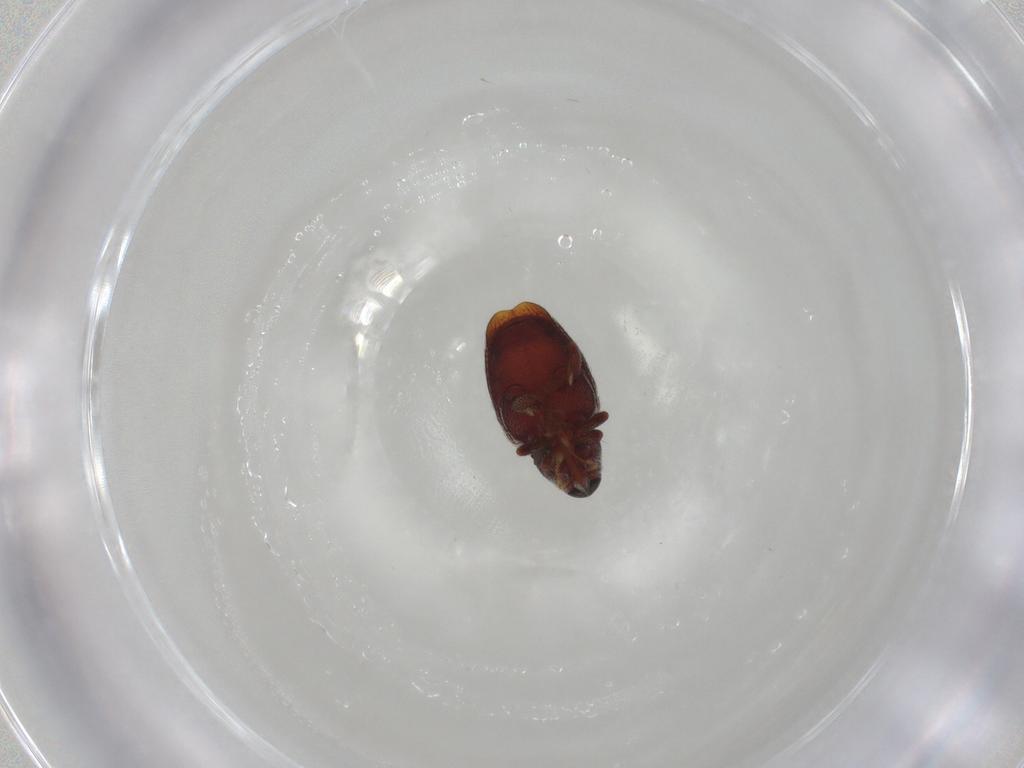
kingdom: Animalia
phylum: Arthropoda
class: Insecta
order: Coleoptera
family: Curculionidae
